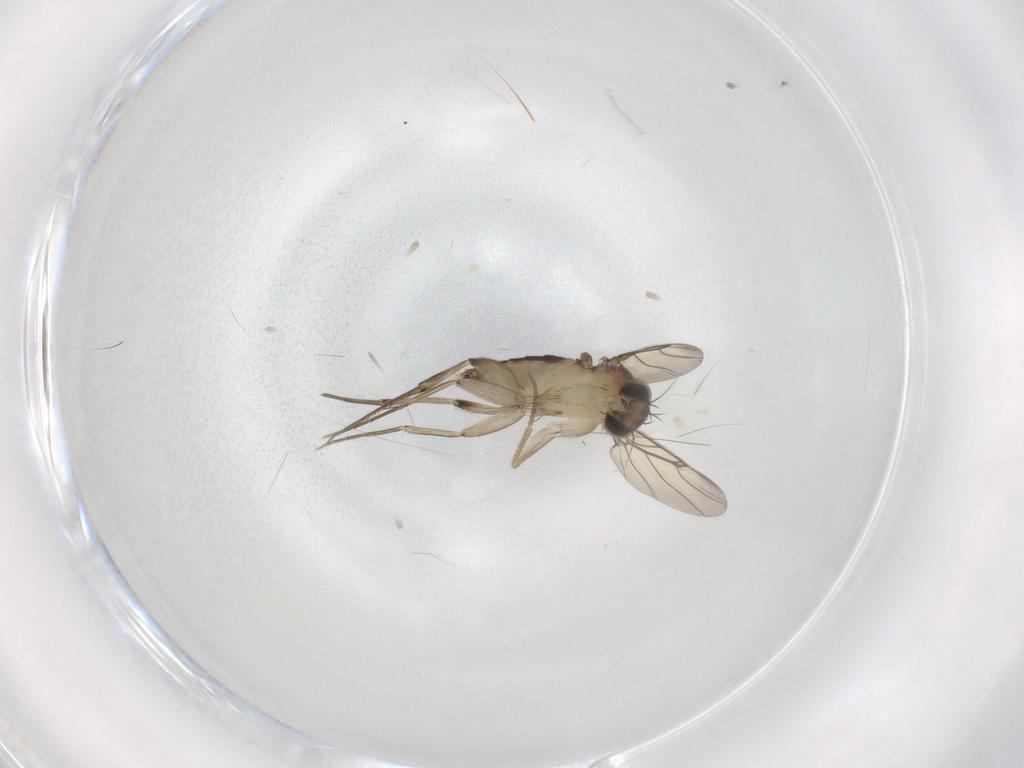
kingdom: Animalia
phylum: Arthropoda
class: Insecta
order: Diptera
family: Phoridae
